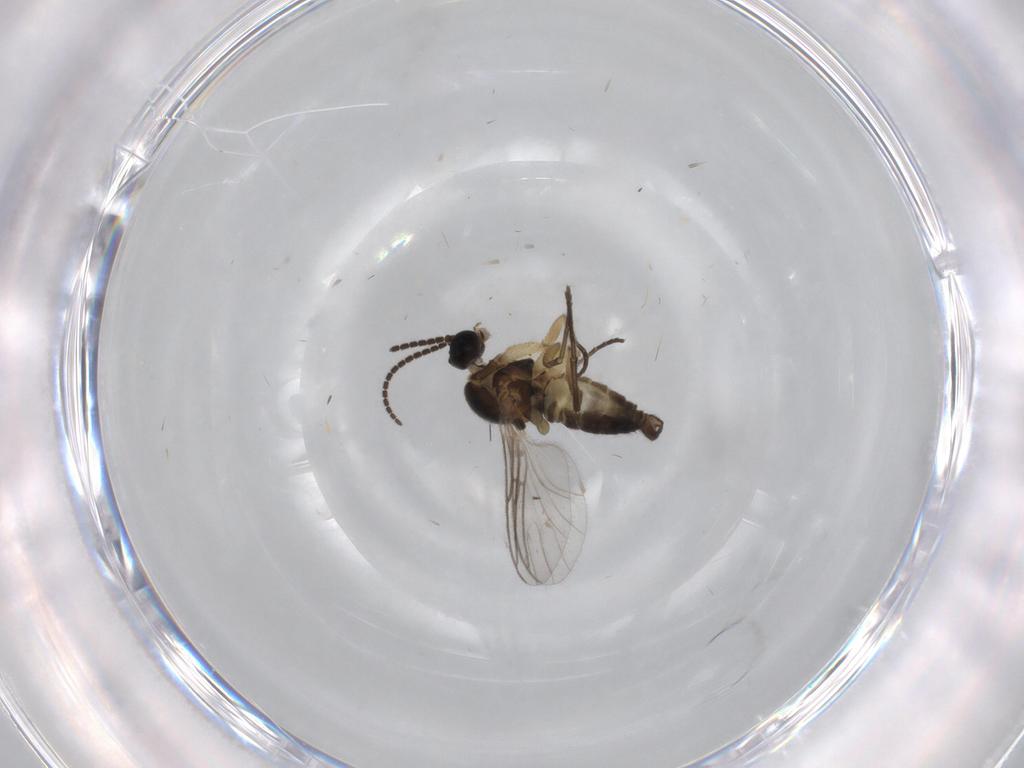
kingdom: Animalia
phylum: Arthropoda
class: Insecta
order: Diptera
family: Sciaridae
